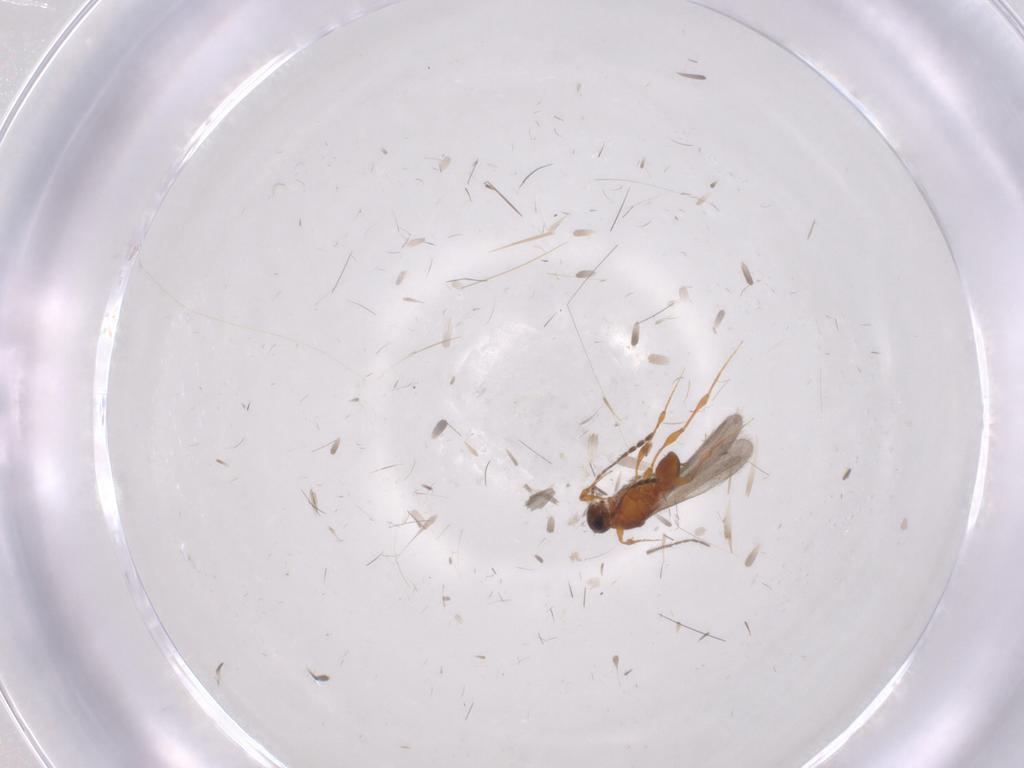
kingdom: Animalia
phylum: Arthropoda
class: Insecta
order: Hymenoptera
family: Platygastridae
